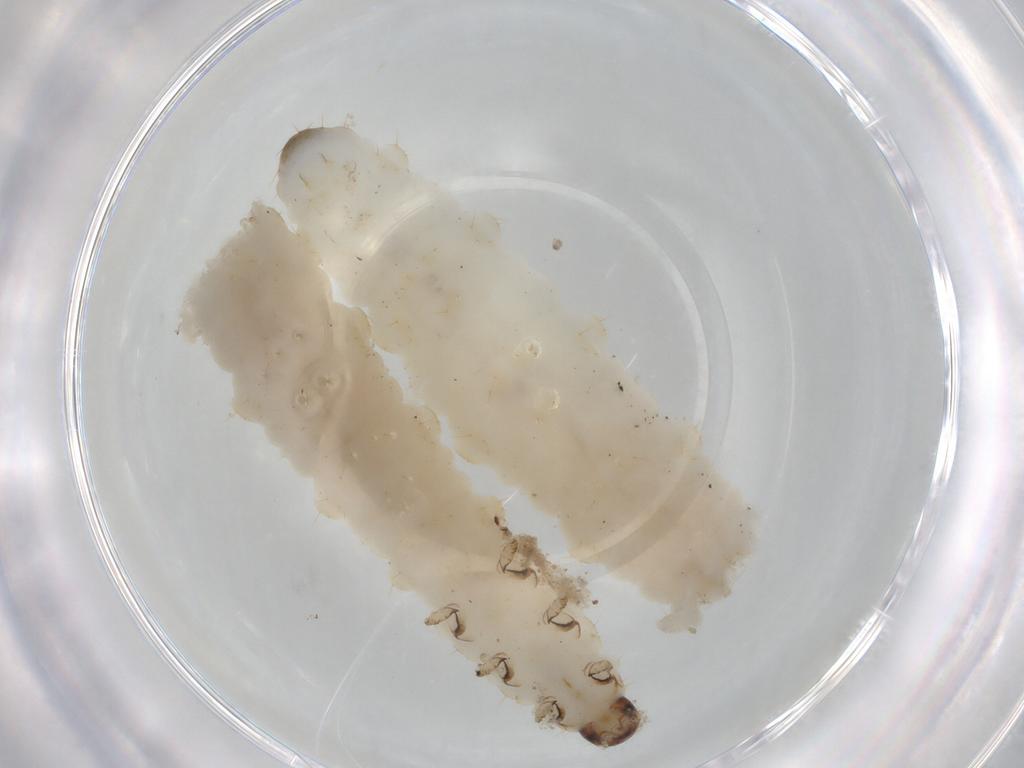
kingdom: Animalia
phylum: Arthropoda
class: Insecta
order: Coleoptera
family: Chrysomelidae
